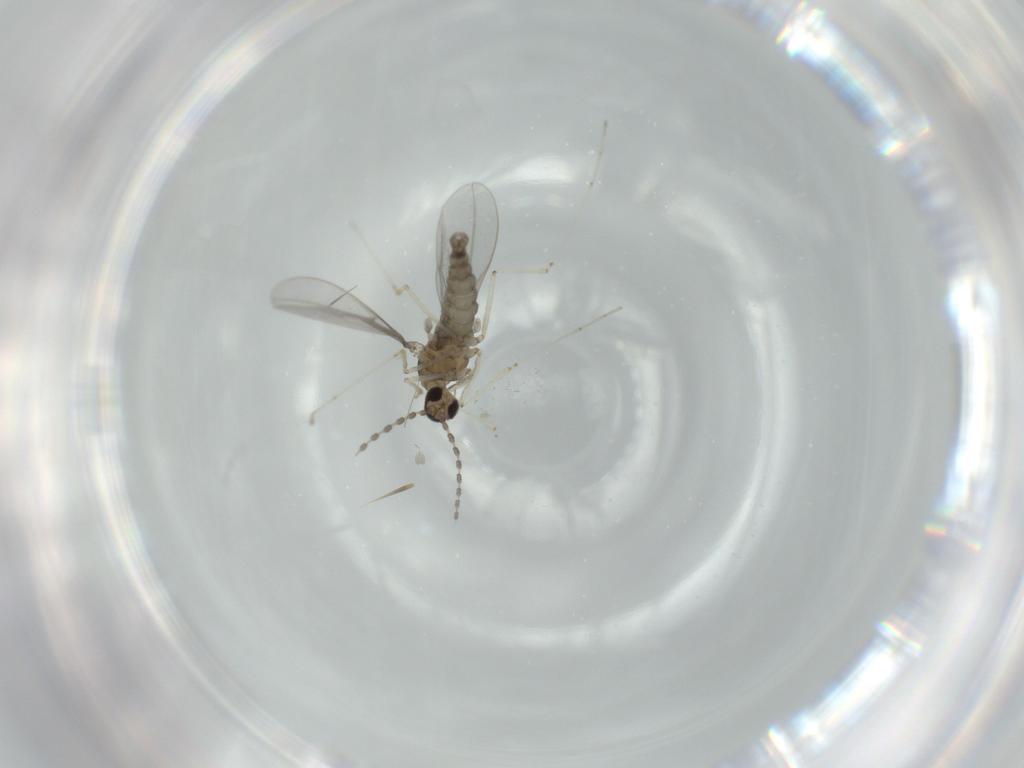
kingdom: Animalia
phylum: Arthropoda
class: Insecta
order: Diptera
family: Cecidomyiidae
